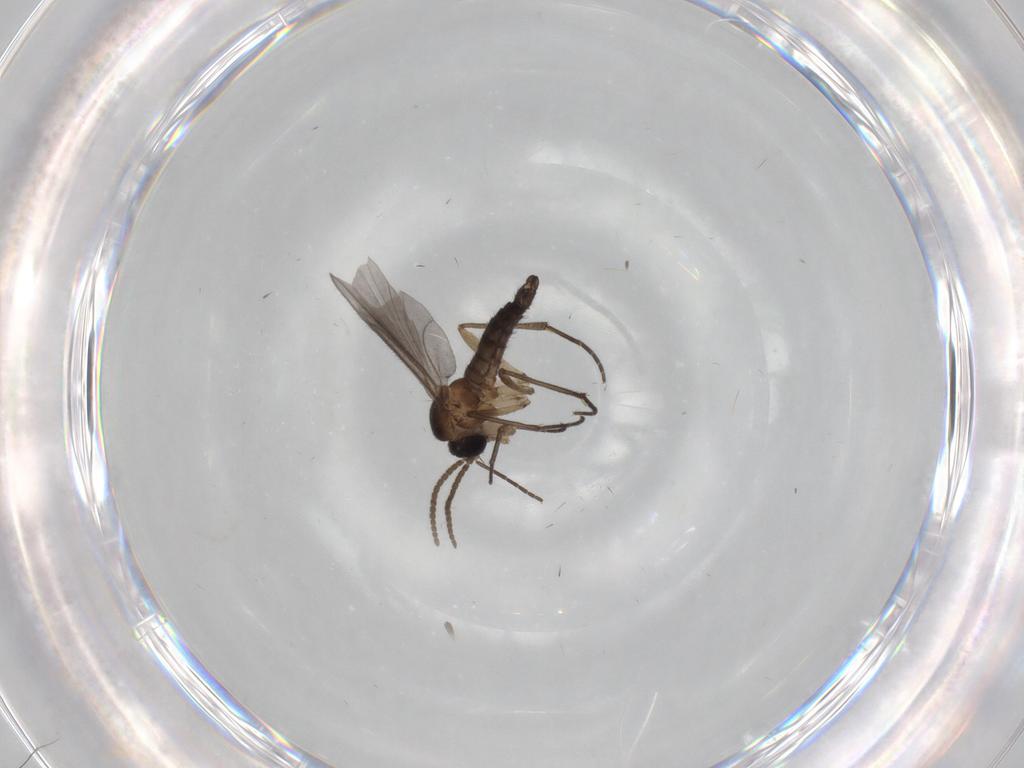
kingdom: Animalia
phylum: Arthropoda
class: Insecta
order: Diptera
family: Sciaridae
